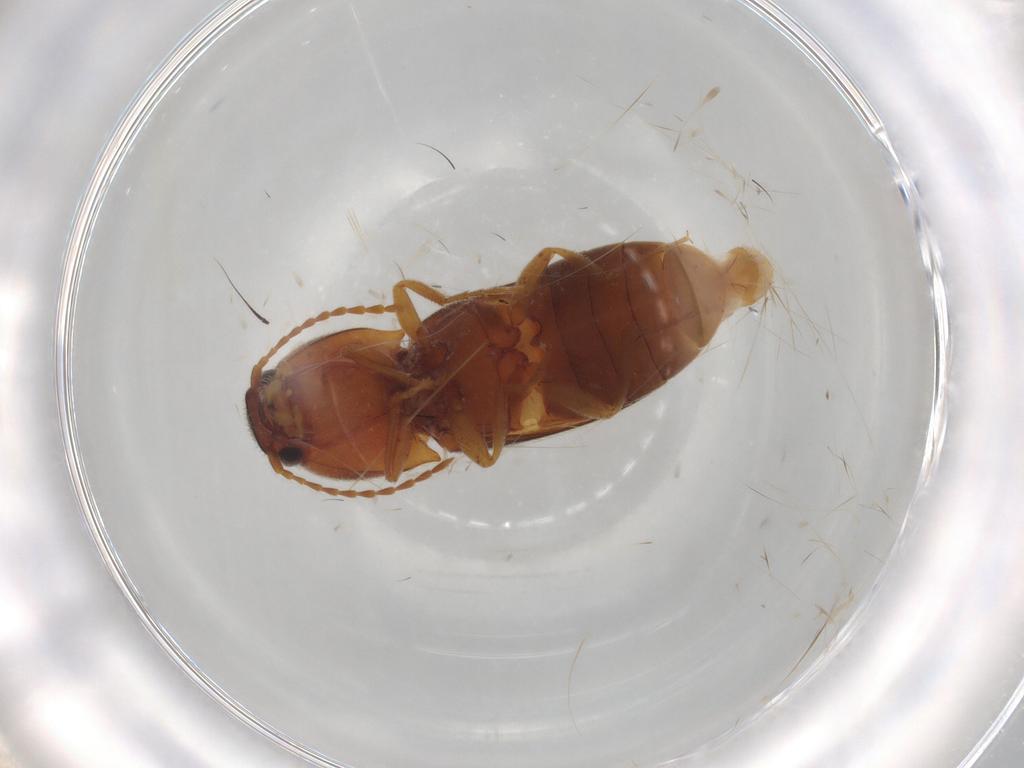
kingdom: Animalia
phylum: Arthropoda
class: Insecta
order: Coleoptera
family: Elateridae
